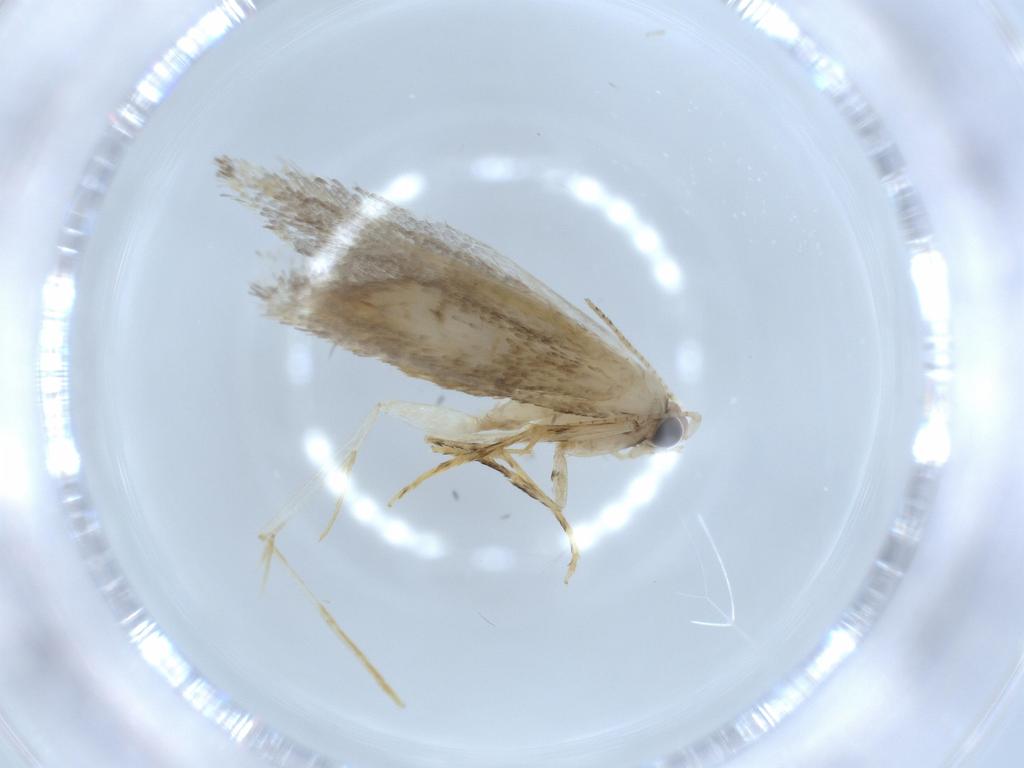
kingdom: Animalia
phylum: Arthropoda
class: Insecta
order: Lepidoptera
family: Tineidae
